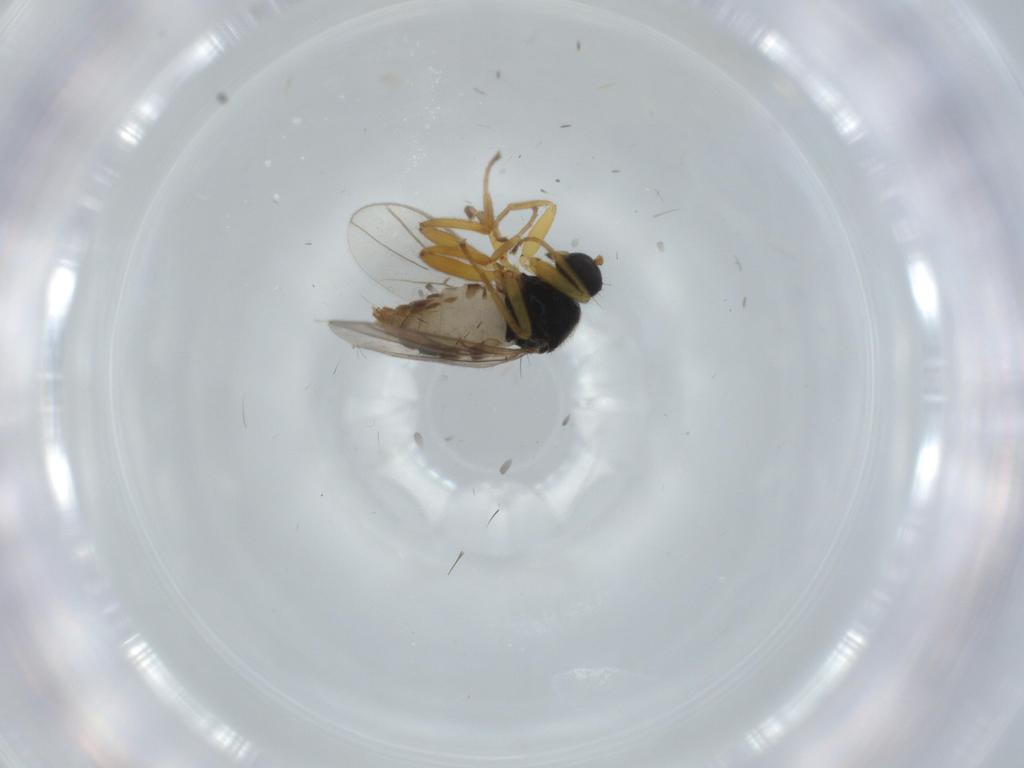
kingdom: Animalia
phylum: Arthropoda
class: Insecta
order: Diptera
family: Hybotidae
